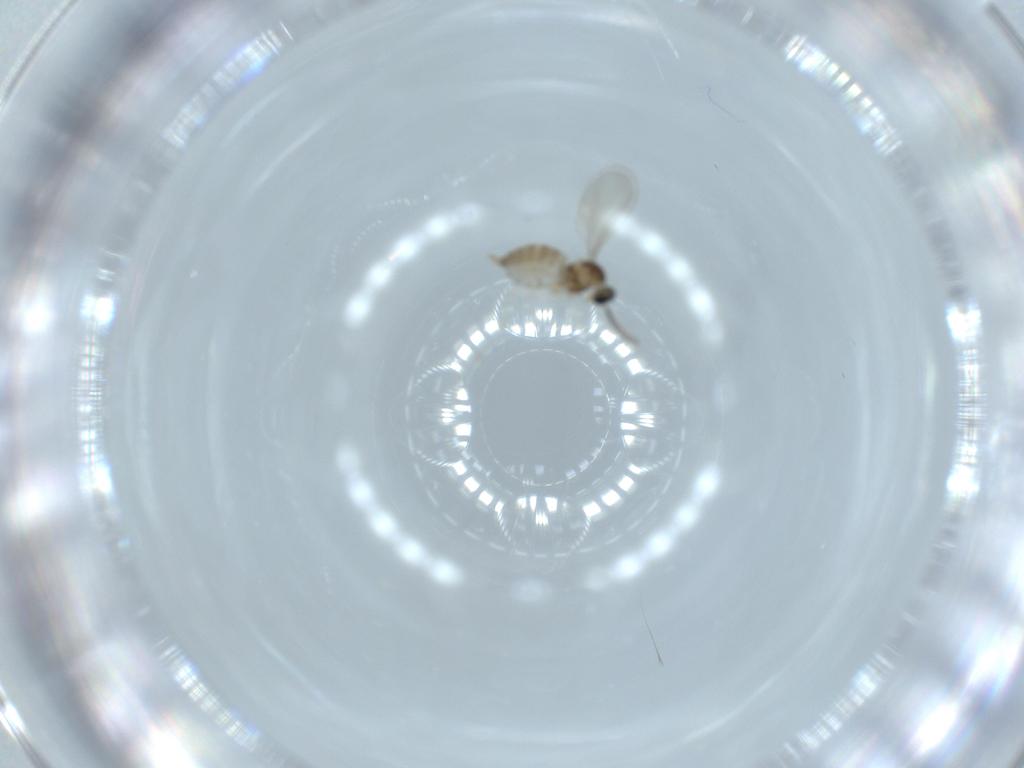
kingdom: Animalia
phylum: Arthropoda
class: Insecta
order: Diptera
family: Cecidomyiidae
